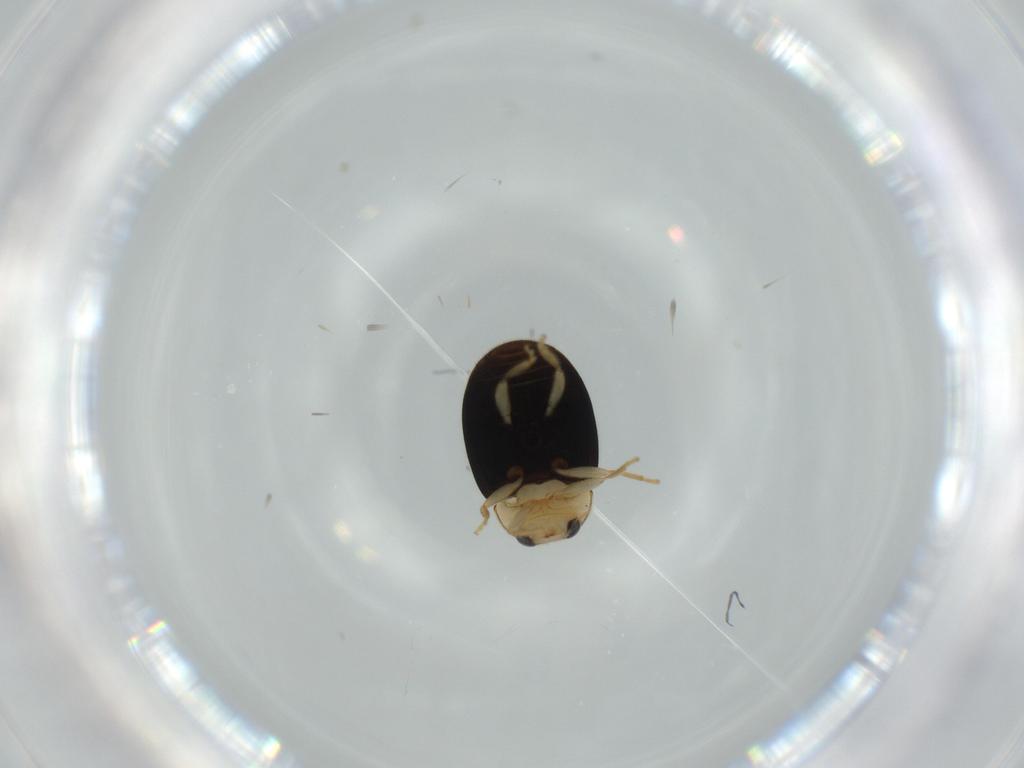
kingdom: Animalia
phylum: Arthropoda
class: Insecta
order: Coleoptera
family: Coccinellidae
